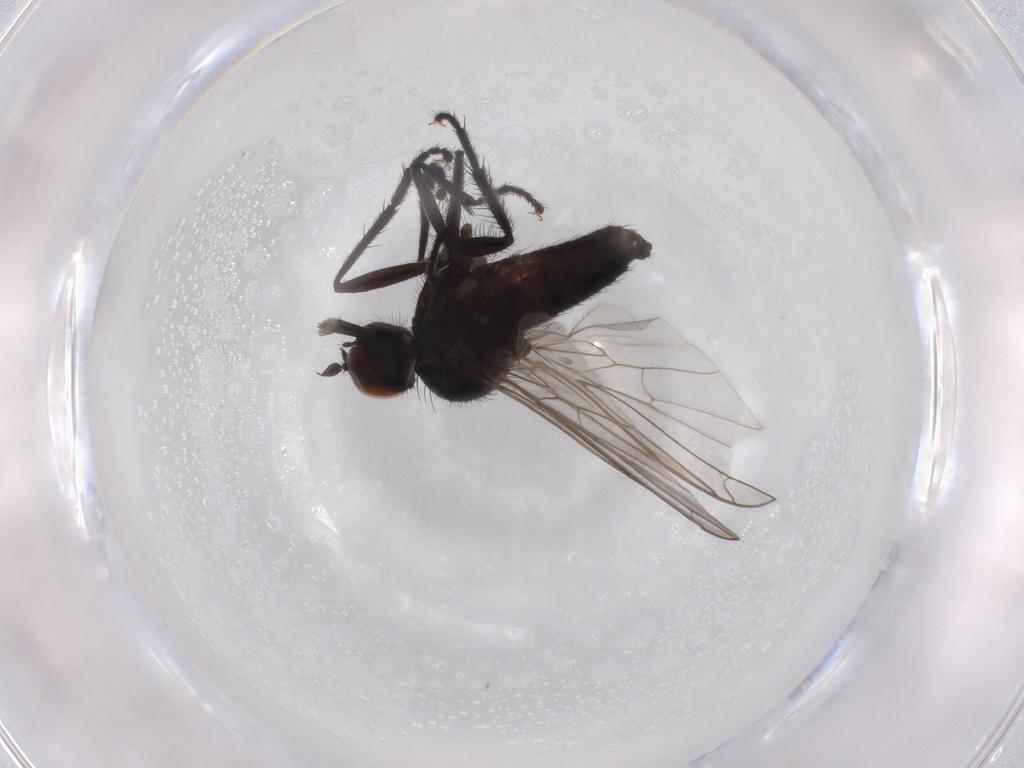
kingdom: Animalia
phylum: Arthropoda
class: Insecta
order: Diptera
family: Empididae
